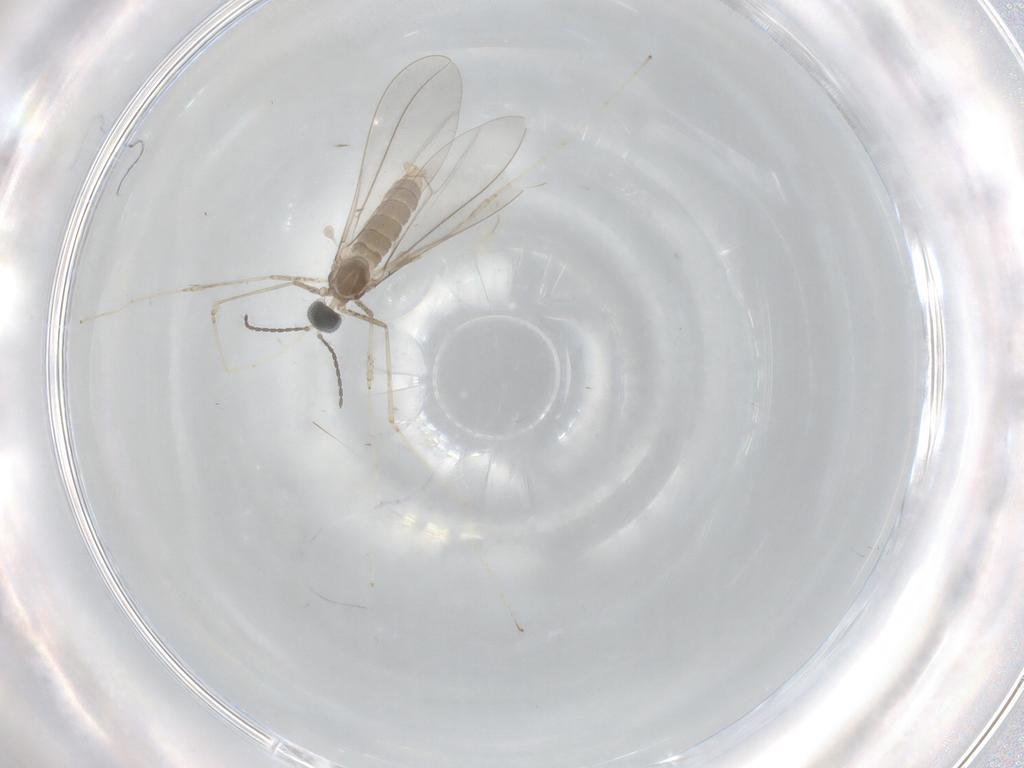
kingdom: Animalia
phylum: Arthropoda
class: Insecta
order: Diptera
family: Cecidomyiidae
